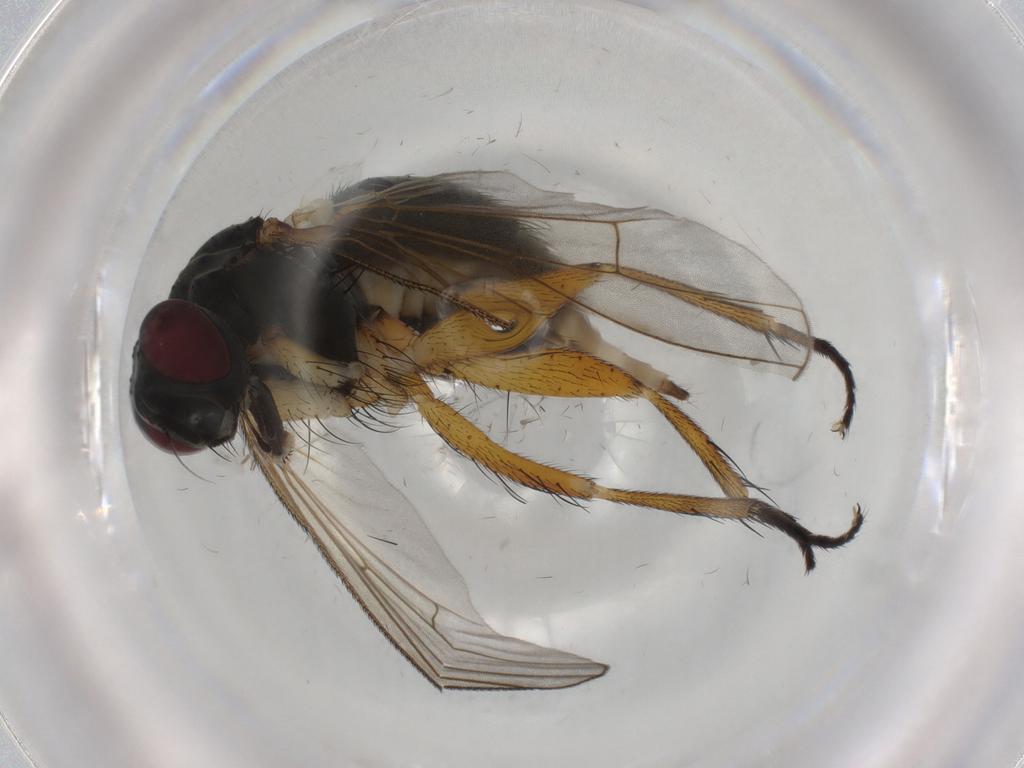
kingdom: Animalia
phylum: Arthropoda
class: Insecta
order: Diptera
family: Muscidae
